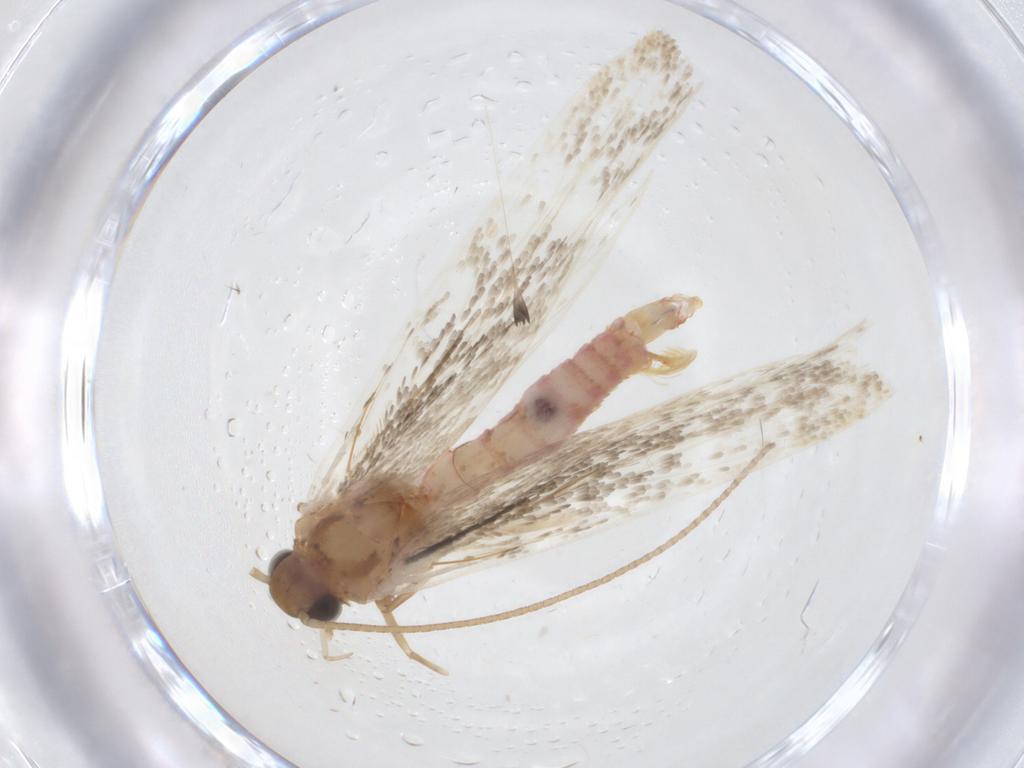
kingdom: Animalia
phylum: Arthropoda
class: Insecta
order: Lepidoptera
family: Crambidae
